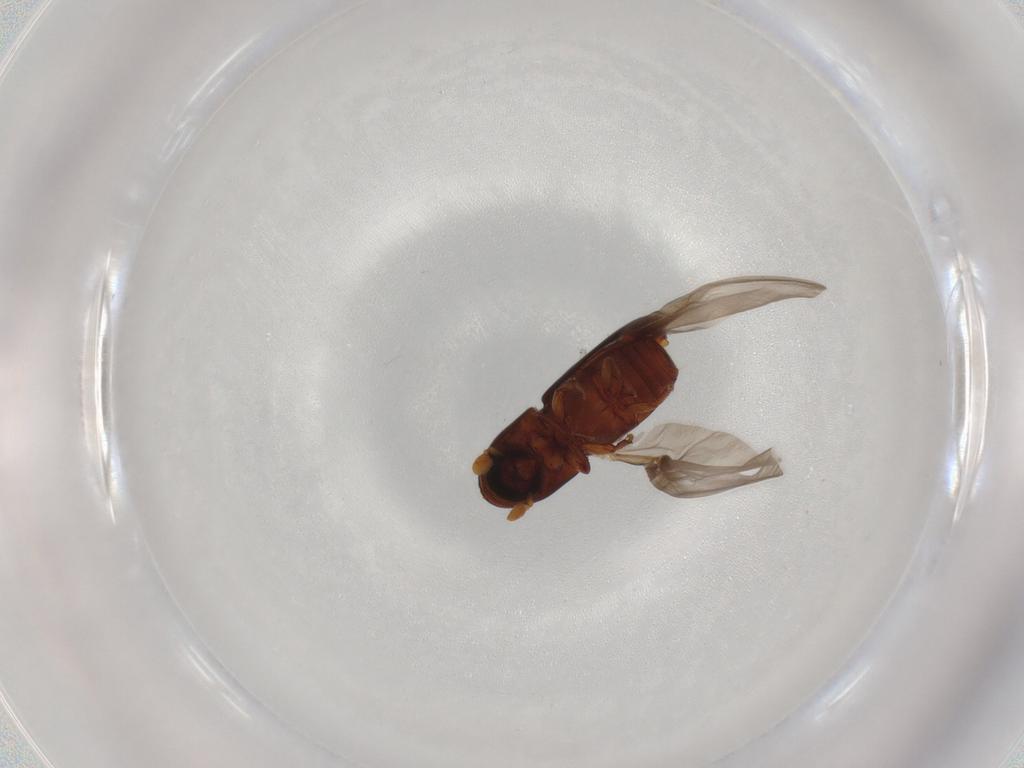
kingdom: Animalia
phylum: Arthropoda
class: Insecta
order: Coleoptera
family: Curculionidae
